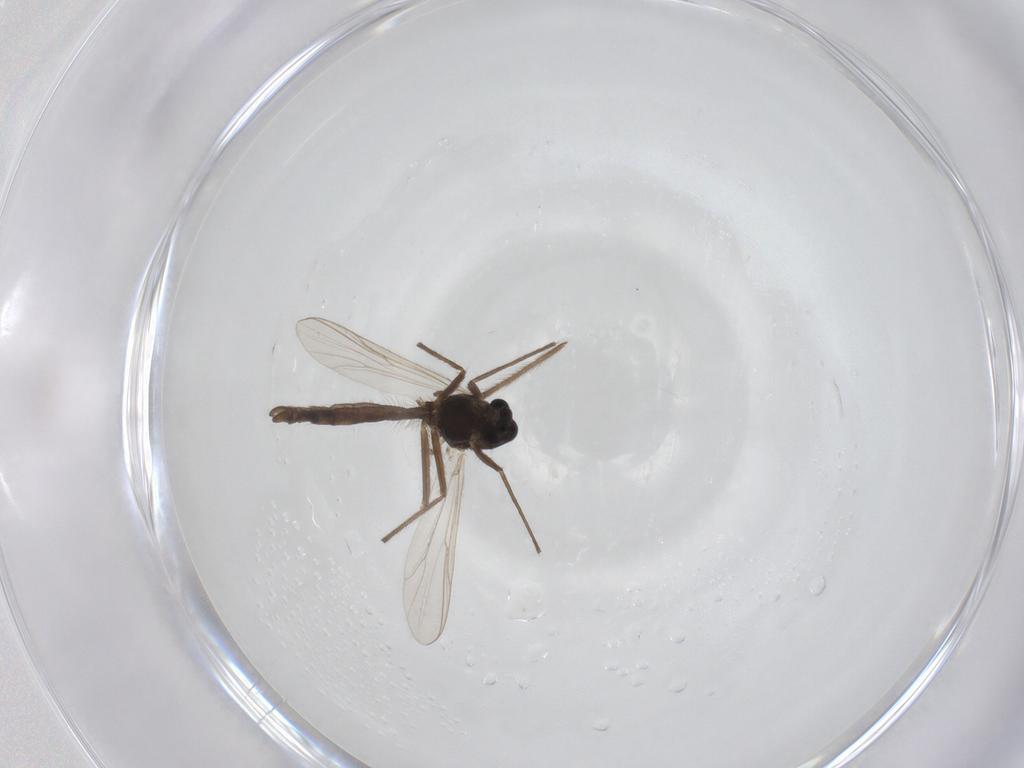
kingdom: Animalia
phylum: Arthropoda
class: Insecta
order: Diptera
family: Chironomidae
